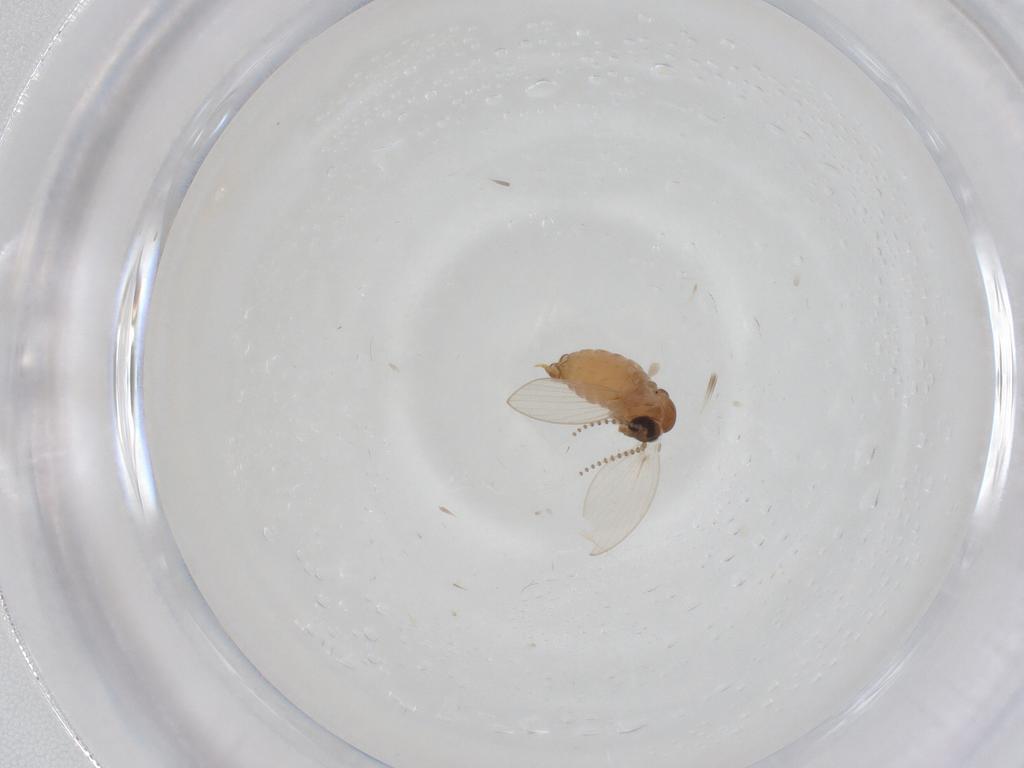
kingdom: Animalia
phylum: Arthropoda
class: Insecta
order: Diptera
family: Psychodidae
